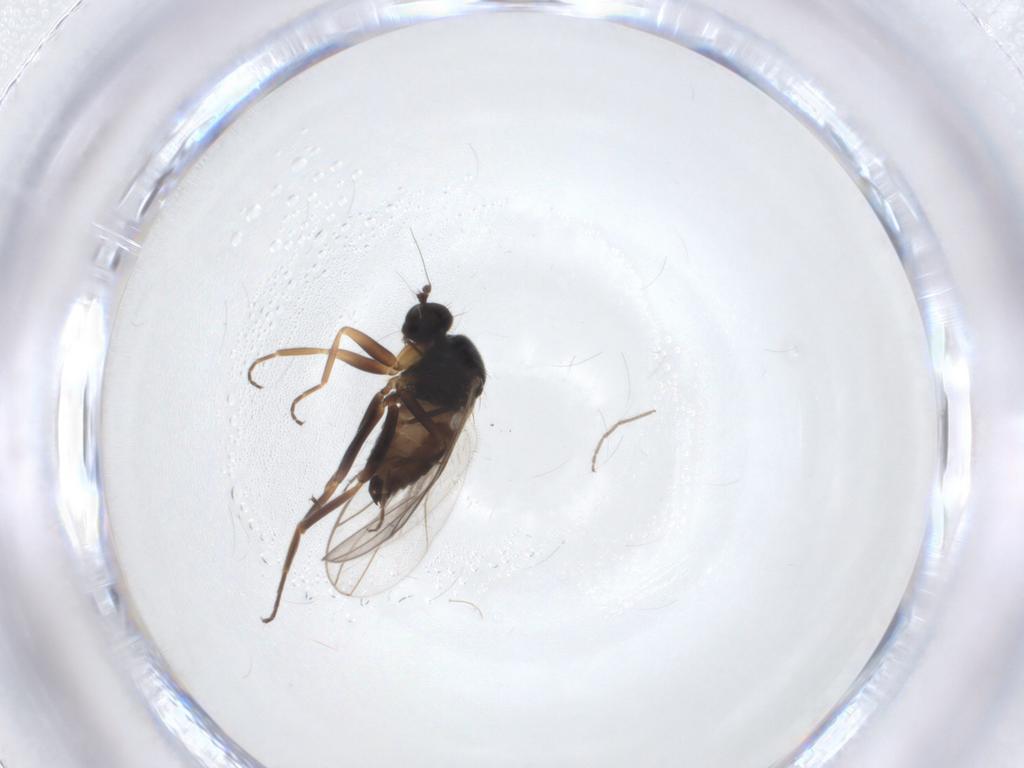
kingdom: Animalia
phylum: Arthropoda
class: Insecta
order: Diptera
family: Hybotidae
